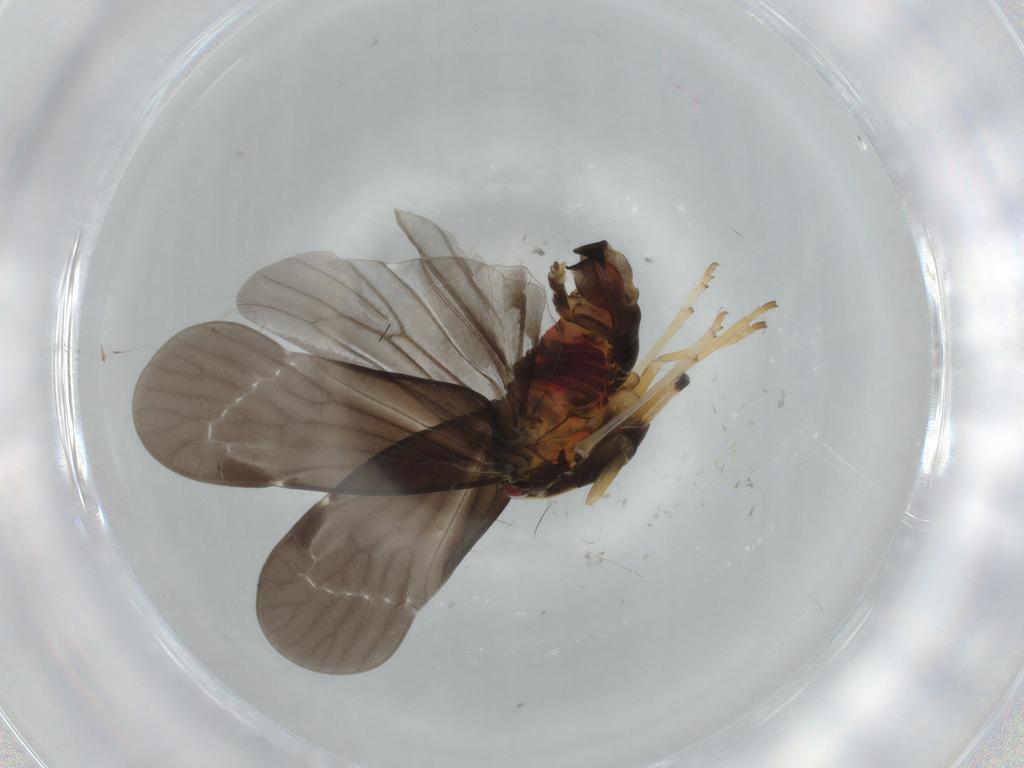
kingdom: Animalia
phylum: Arthropoda
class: Insecta
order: Hemiptera
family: Derbidae
